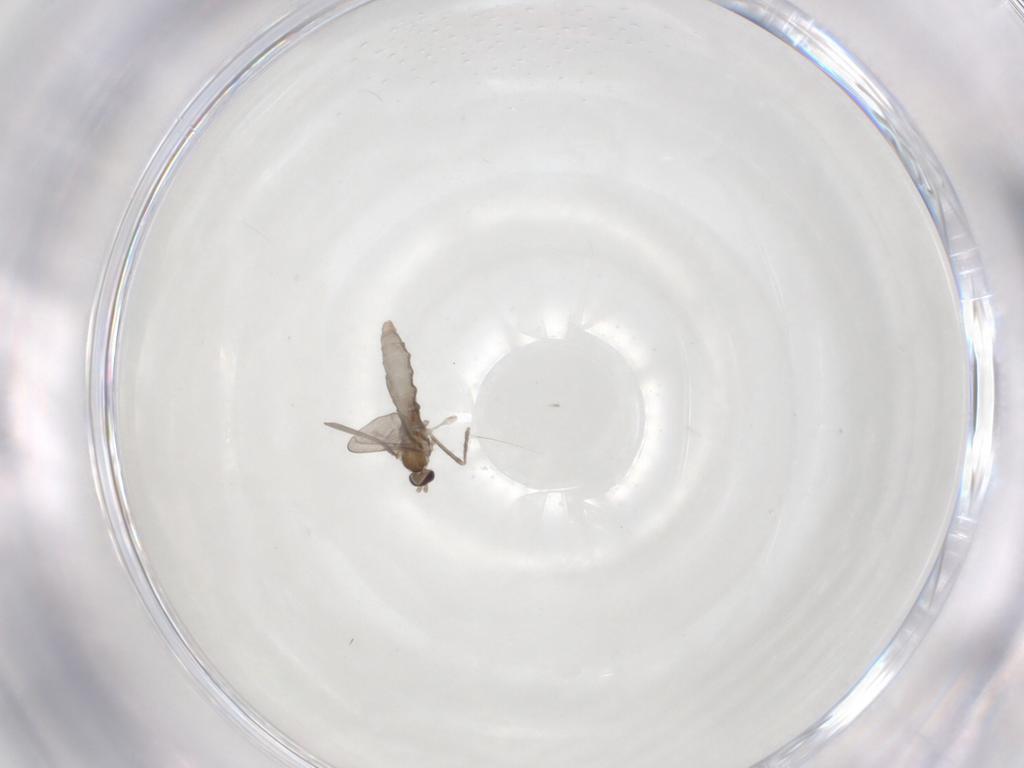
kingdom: Animalia
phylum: Arthropoda
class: Insecta
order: Diptera
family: Cecidomyiidae
